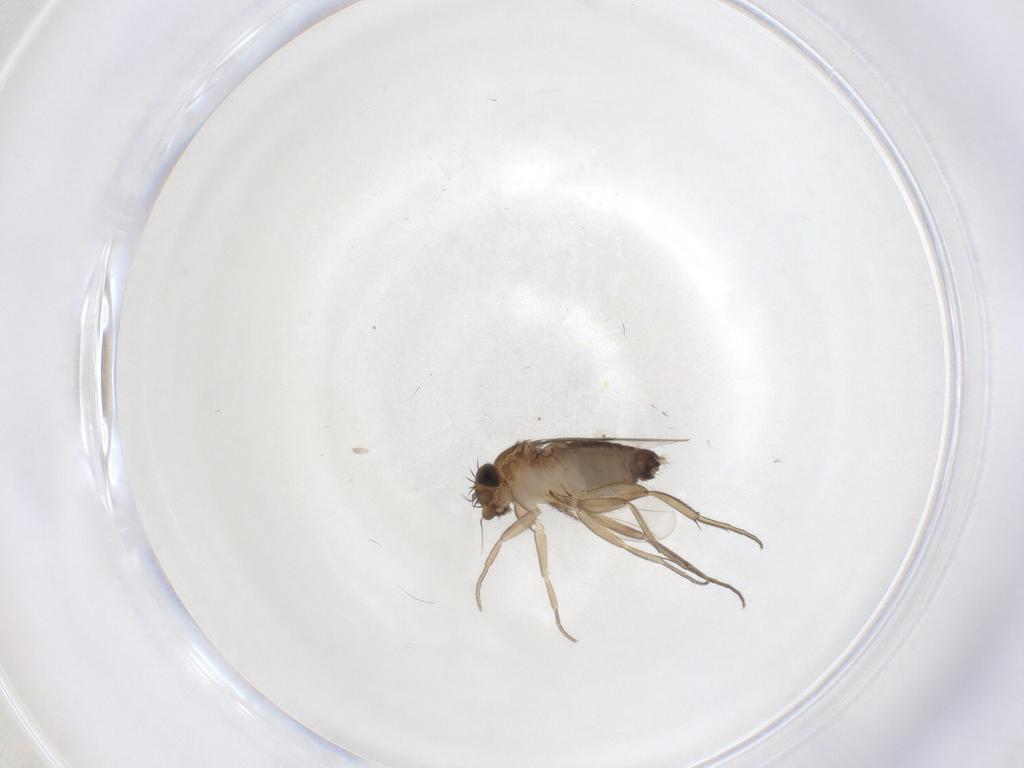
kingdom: Animalia
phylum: Arthropoda
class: Insecta
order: Diptera
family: Phoridae
